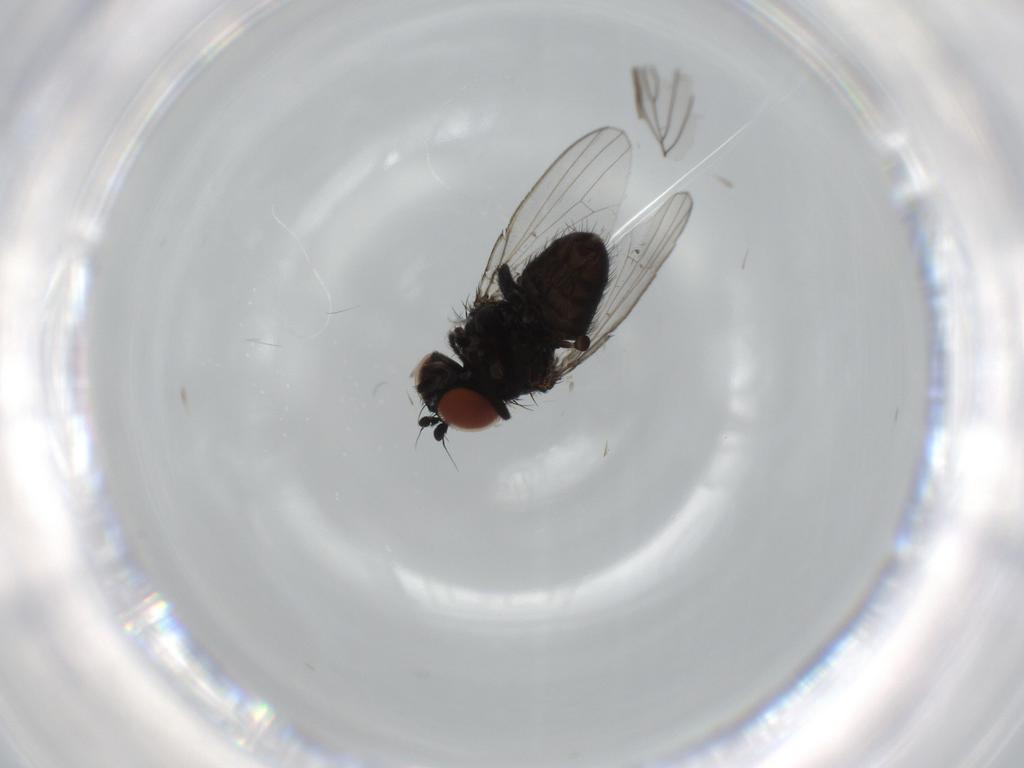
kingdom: Animalia
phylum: Arthropoda
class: Insecta
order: Diptera
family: Milichiidae
